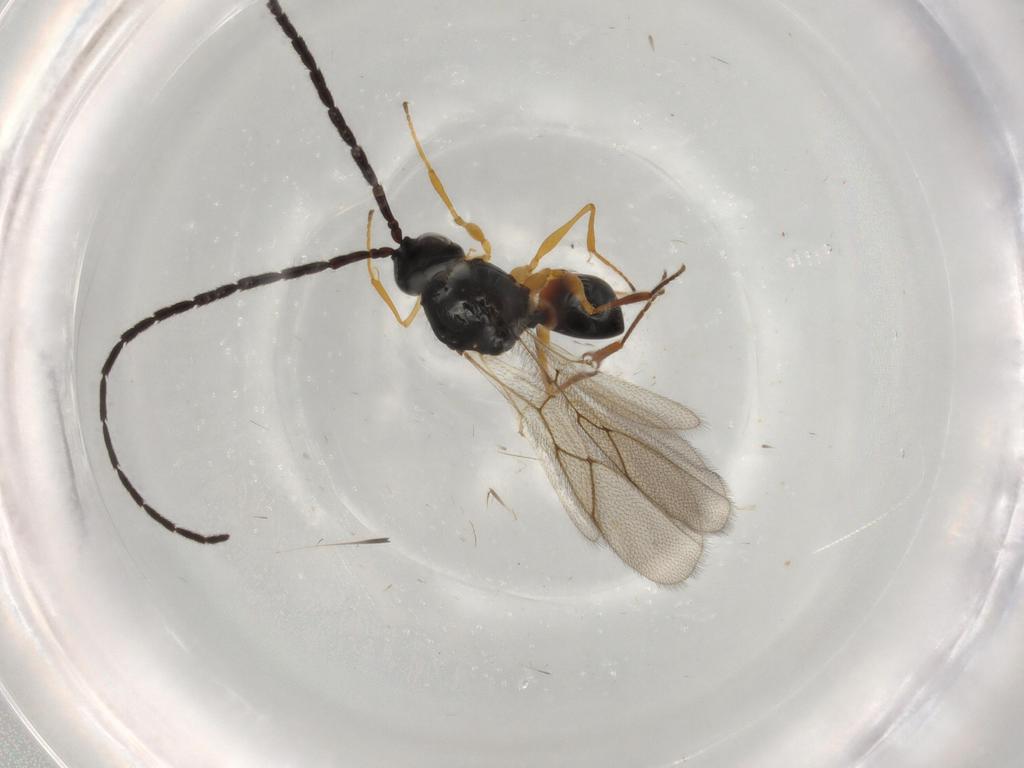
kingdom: Animalia
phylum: Arthropoda
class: Insecta
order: Hymenoptera
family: Figitidae
